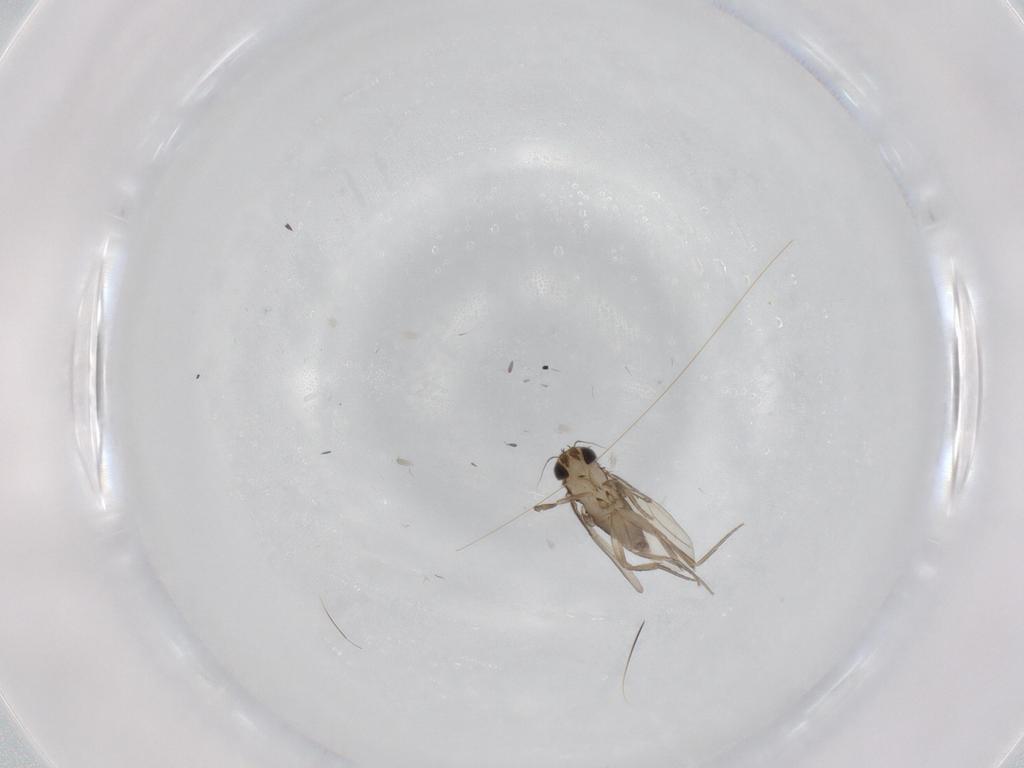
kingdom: Animalia
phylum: Arthropoda
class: Insecta
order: Diptera
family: Phoridae
